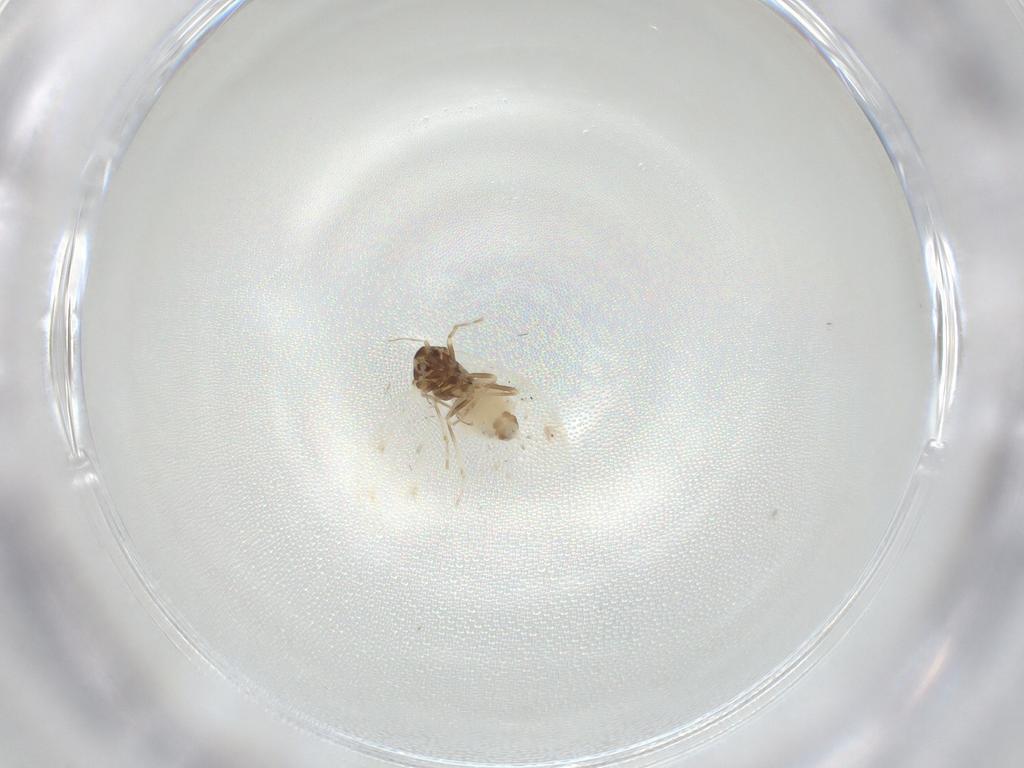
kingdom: Animalia
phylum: Arthropoda
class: Insecta
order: Hemiptera
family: Aleyrodidae
